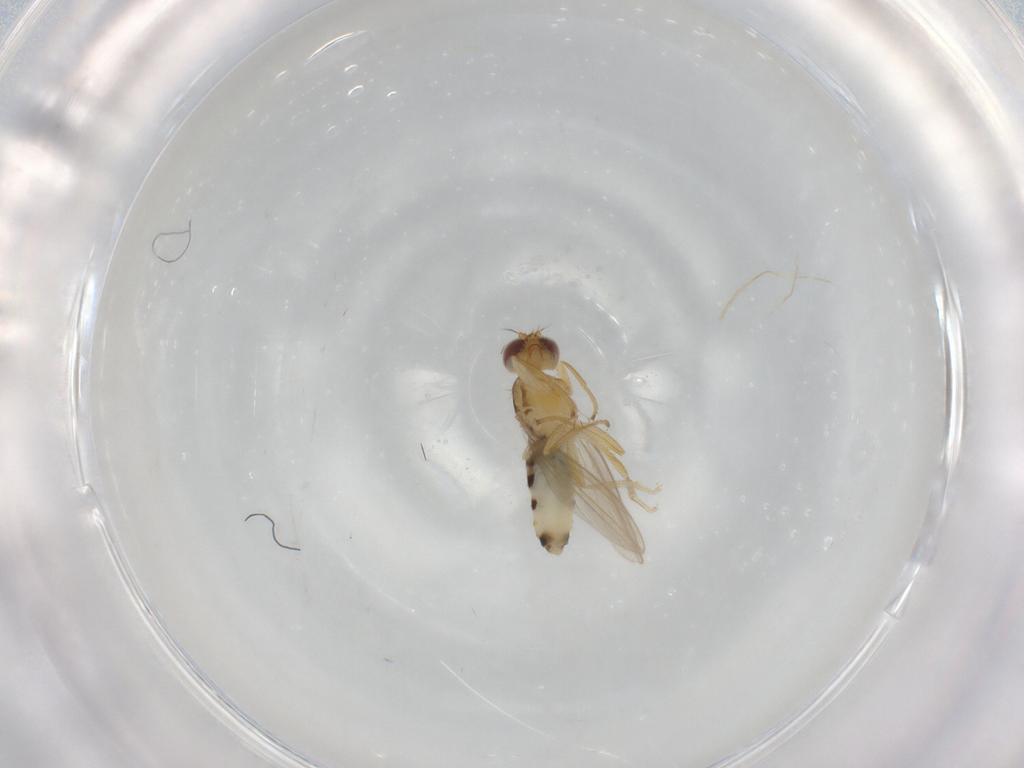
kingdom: Animalia
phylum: Arthropoda
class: Insecta
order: Diptera
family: Periscelididae
